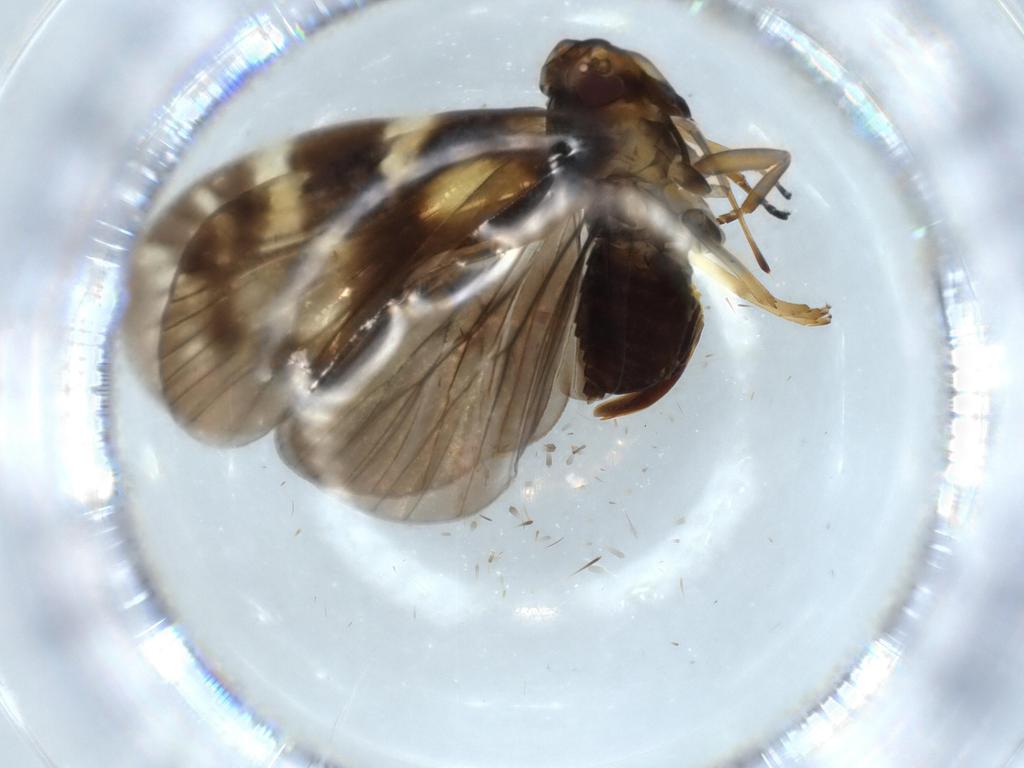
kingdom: Animalia
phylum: Arthropoda
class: Insecta
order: Hemiptera
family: Cixiidae
